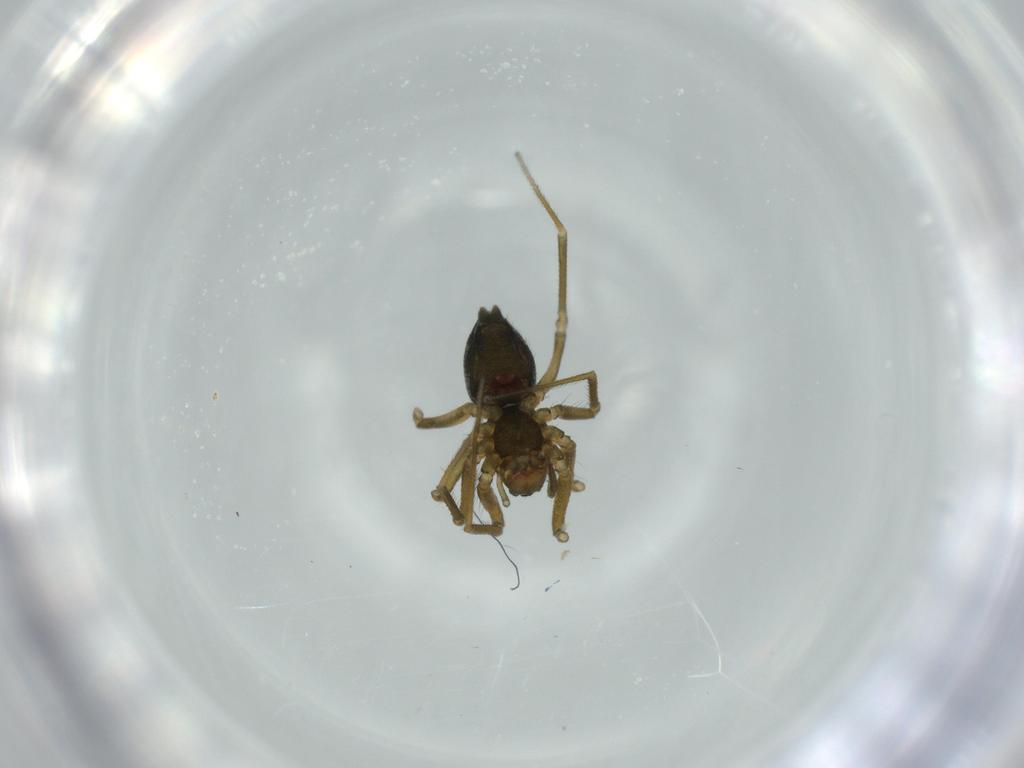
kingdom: Animalia
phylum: Arthropoda
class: Arachnida
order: Araneae
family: Linyphiidae
